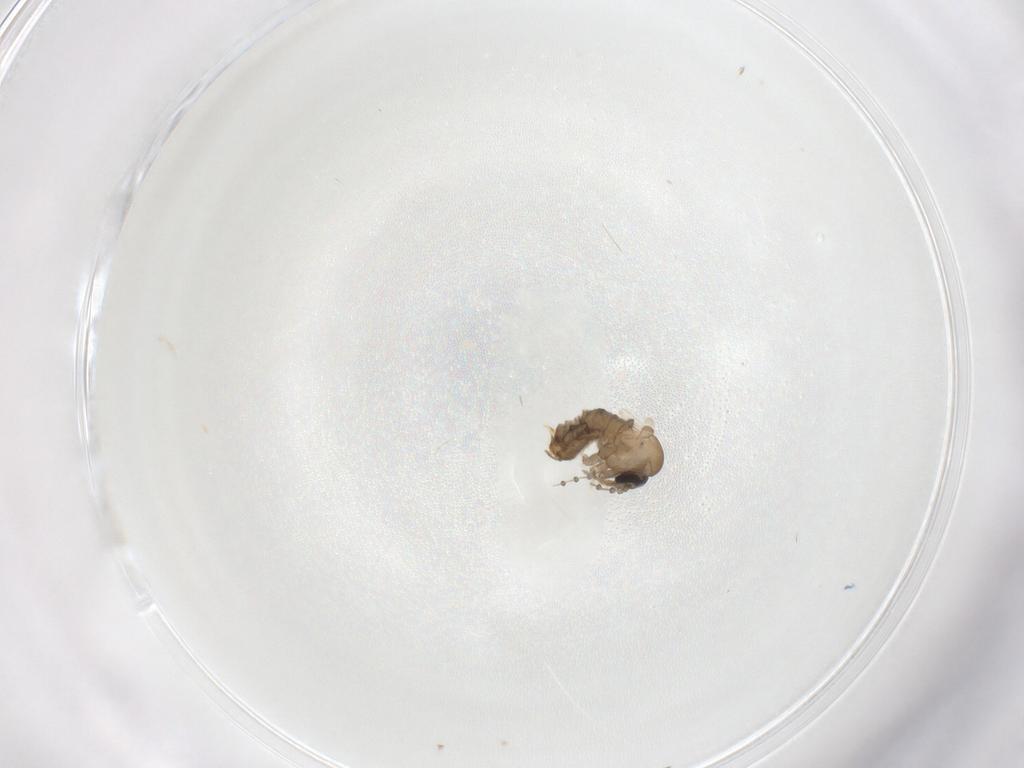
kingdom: Animalia
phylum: Arthropoda
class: Insecta
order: Diptera
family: Psychodidae
